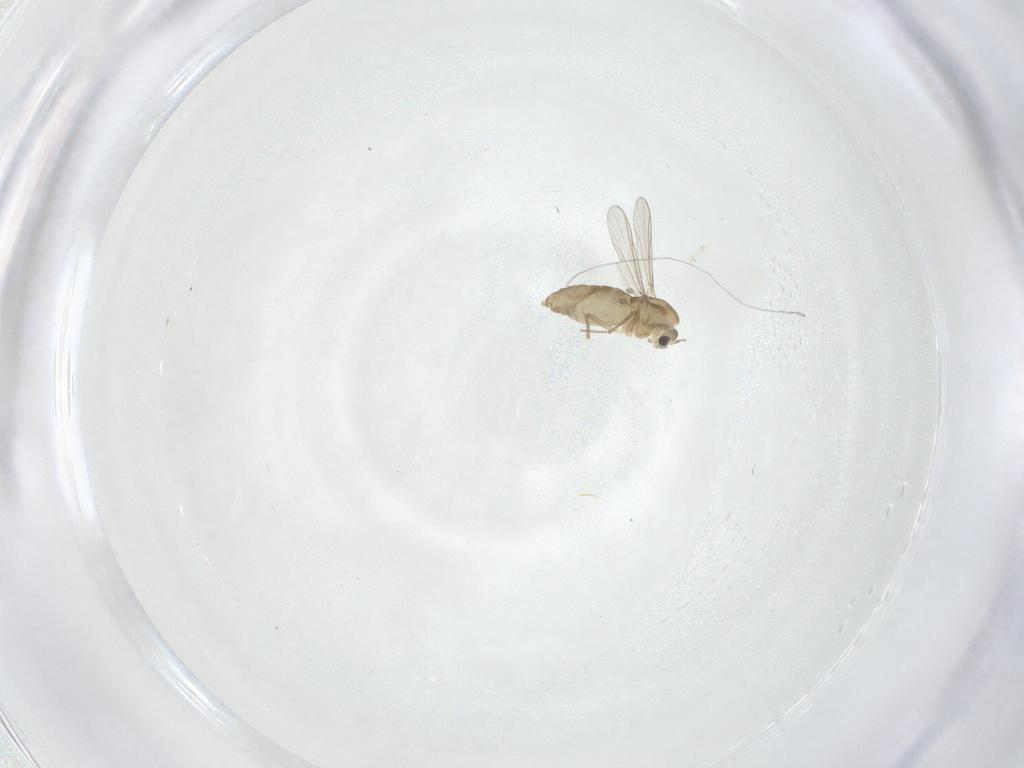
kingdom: Animalia
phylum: Arthropoda
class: Insecta
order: Diptera
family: Chironomidae
